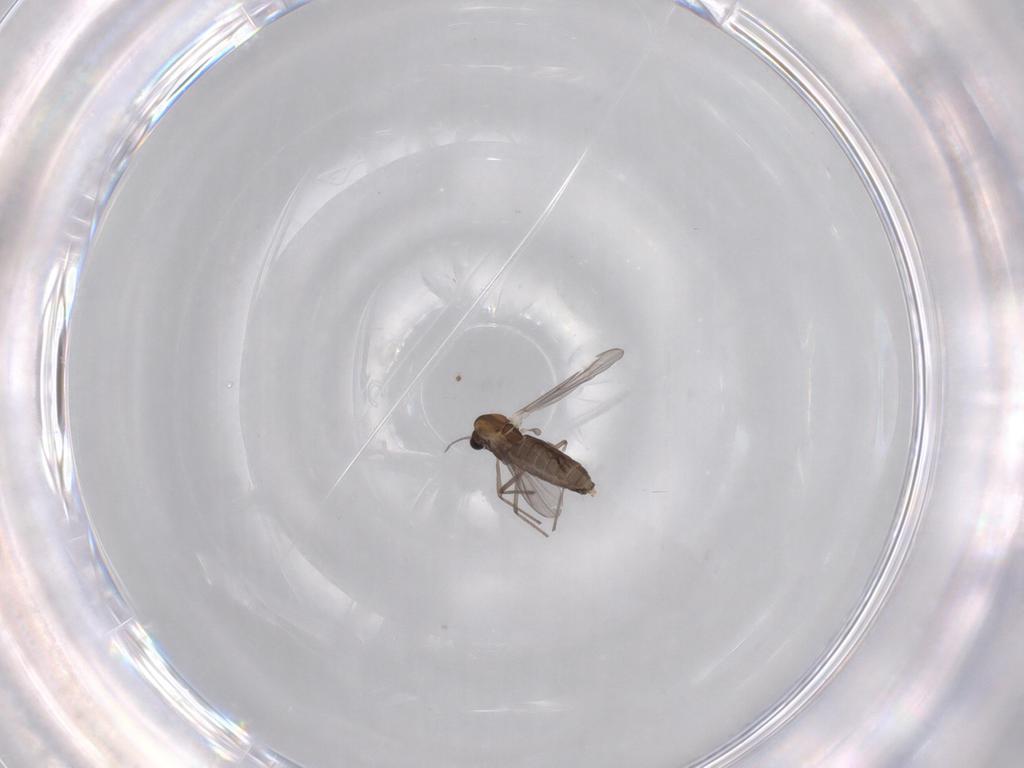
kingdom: Animalia
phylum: Arthropoda
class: Insecta
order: Diptera
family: Chironomidae
